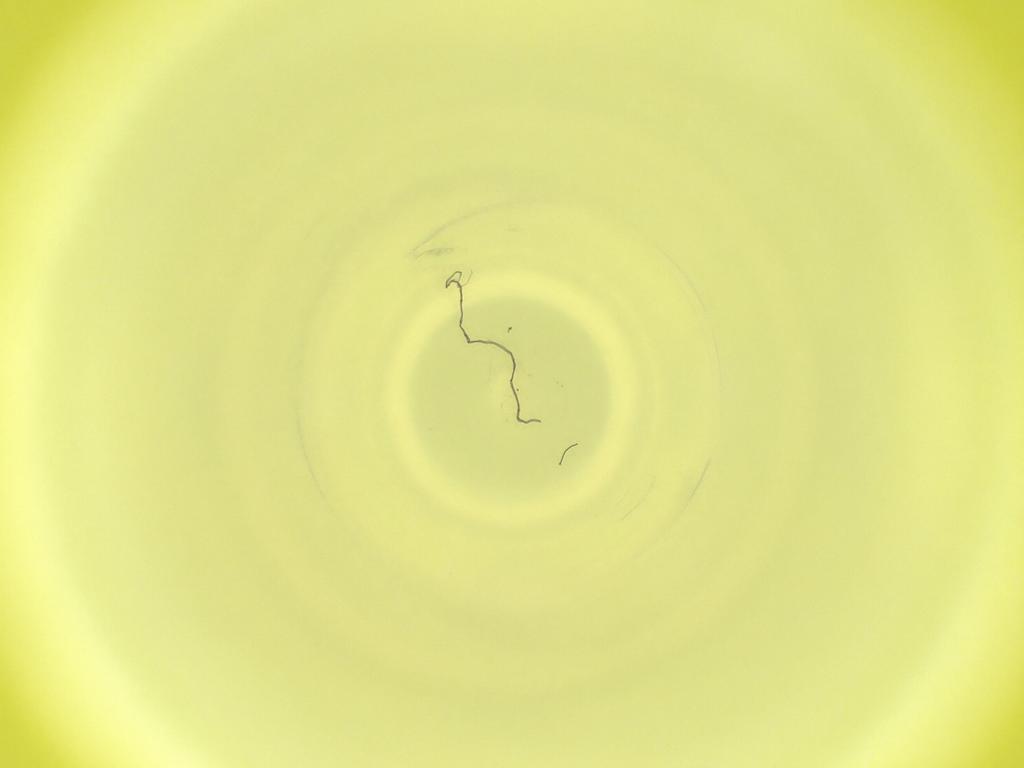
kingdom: Animalia
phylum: Arthropoda
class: Insecta
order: Diptera
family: Cecidomyiidae
